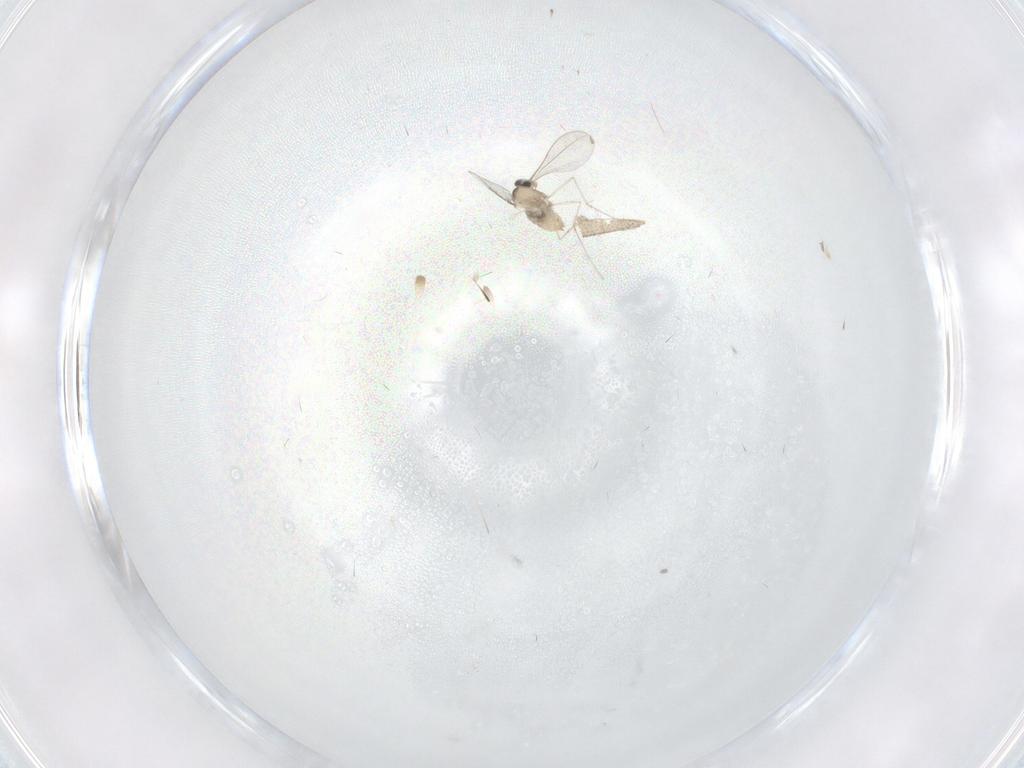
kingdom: Animalia
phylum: Arthropoda
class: Insecta
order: Diptera
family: Cecidomyiidae
